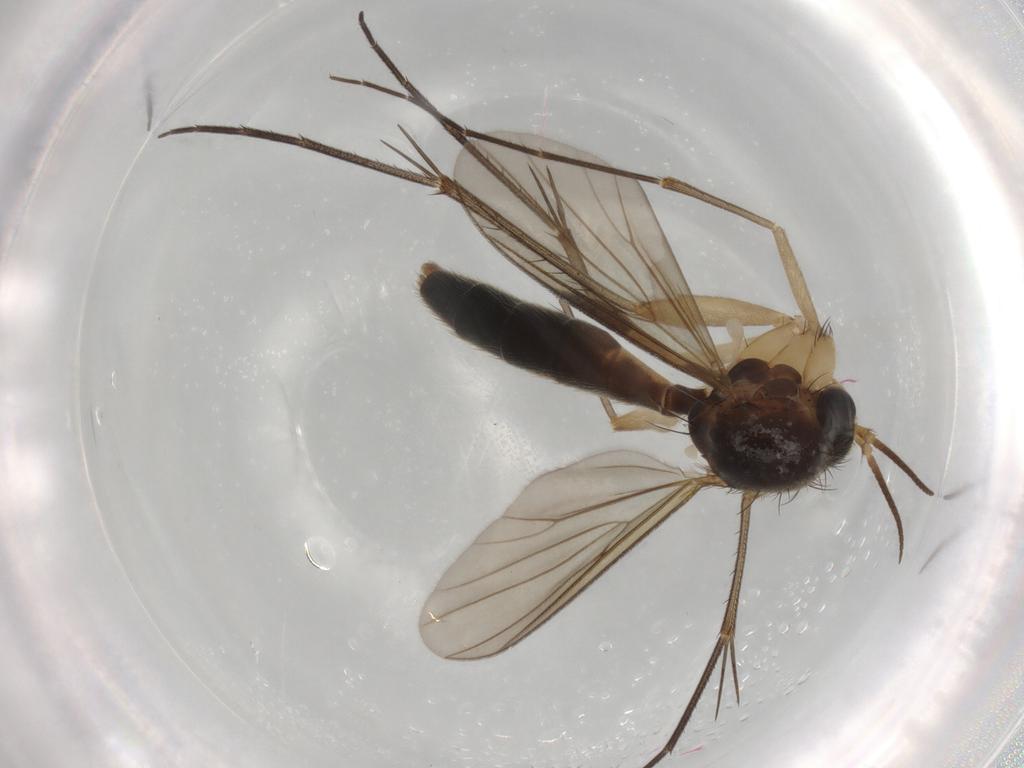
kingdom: Animalia
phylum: Arthropoda
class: Insecta
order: Diptera
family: Mycetophilidae
